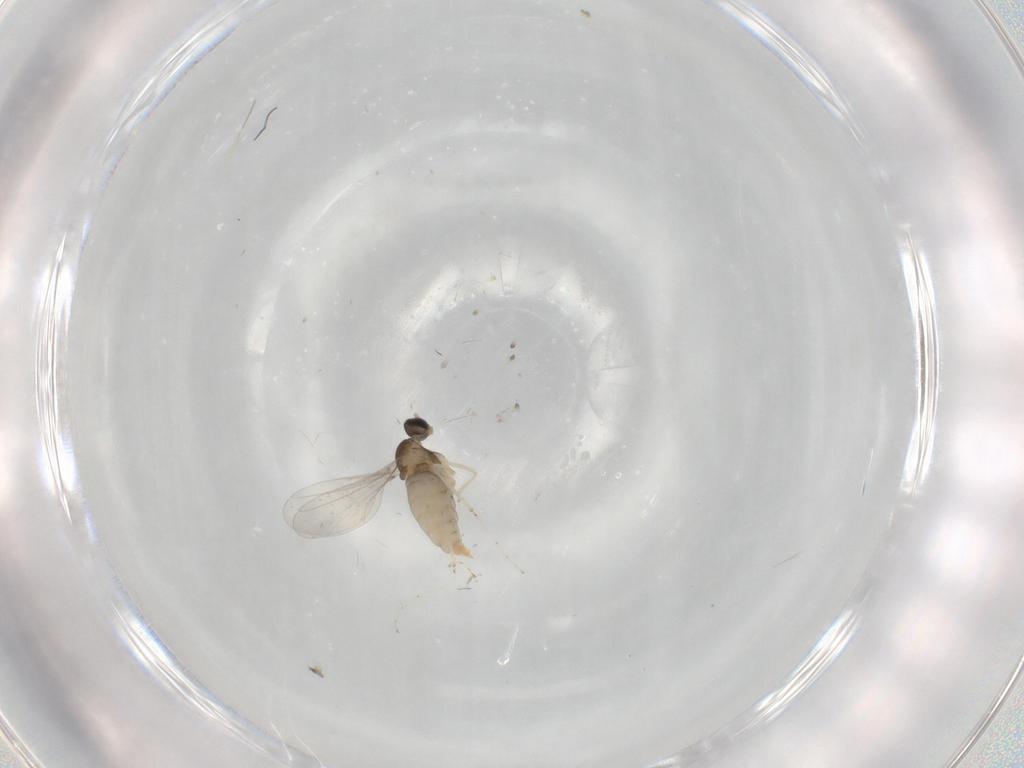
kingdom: Animalia
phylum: Arthropoda
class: Insecta
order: Diptera
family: Cecidomyiidae
